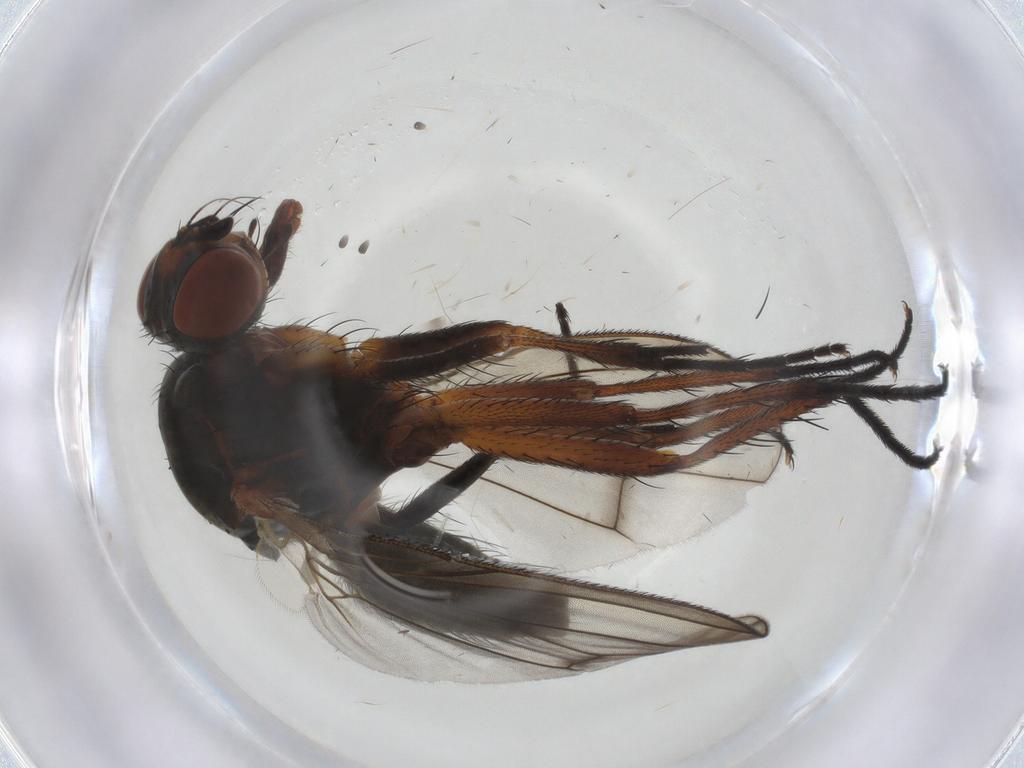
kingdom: Animalia
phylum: Arthropoda
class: Insecta
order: Diptera
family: Anthomyiidae
